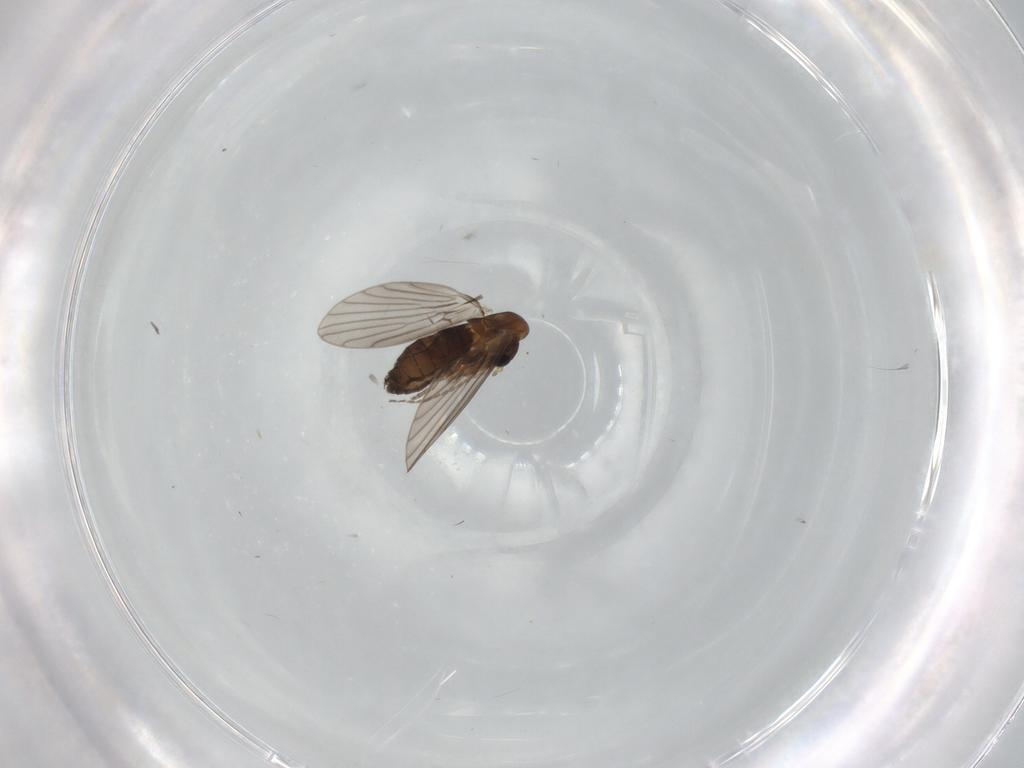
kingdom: Animalia
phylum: Arthropoda
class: Insecta
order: Diptera
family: Psychodidae
